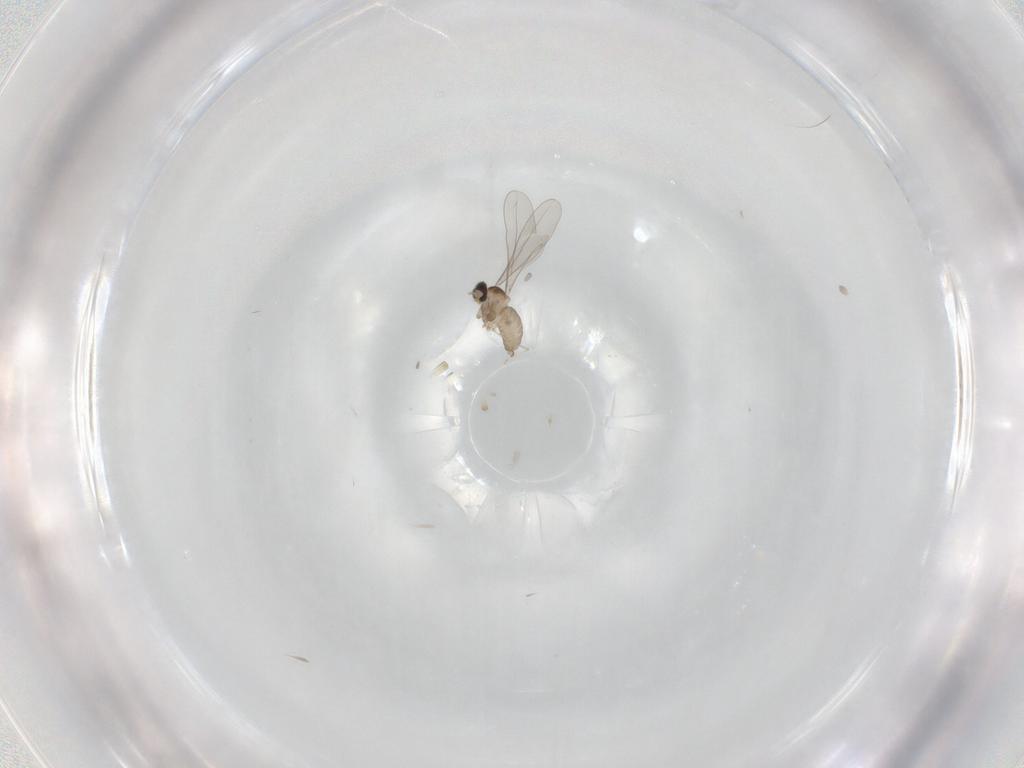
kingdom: Animalia
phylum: Arthropoda
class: Insecta
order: Diptera
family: Cecidomyiidae
